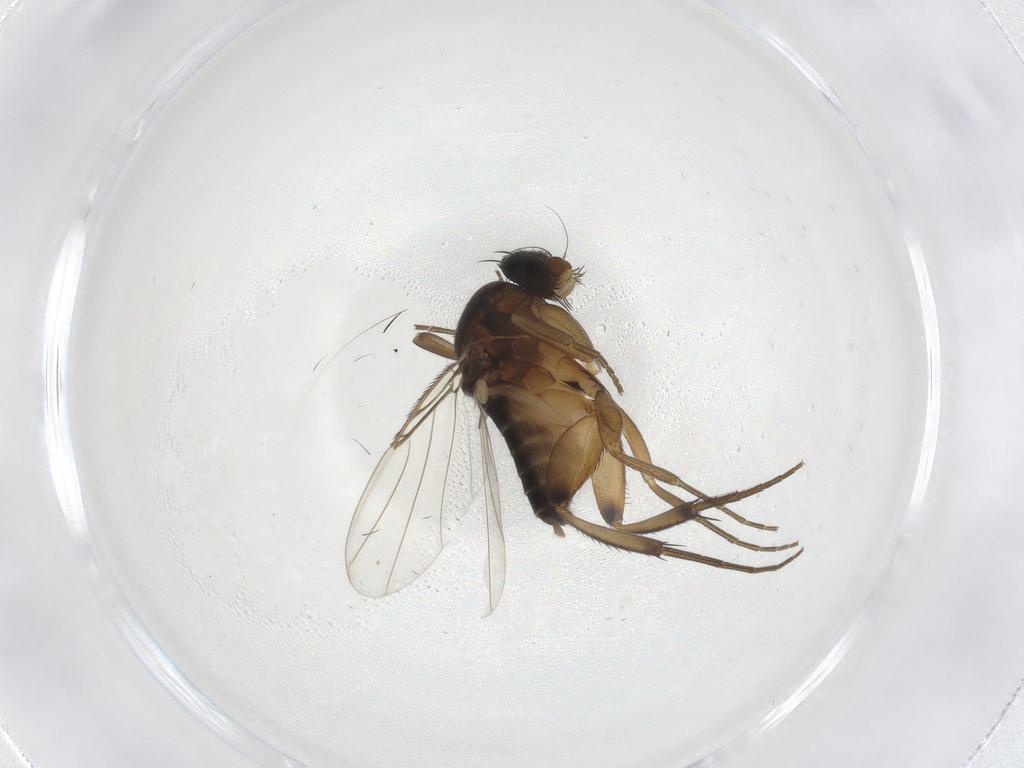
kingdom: Animalia
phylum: Arthropoda
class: Insecta
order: Diptera
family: Phoridae
